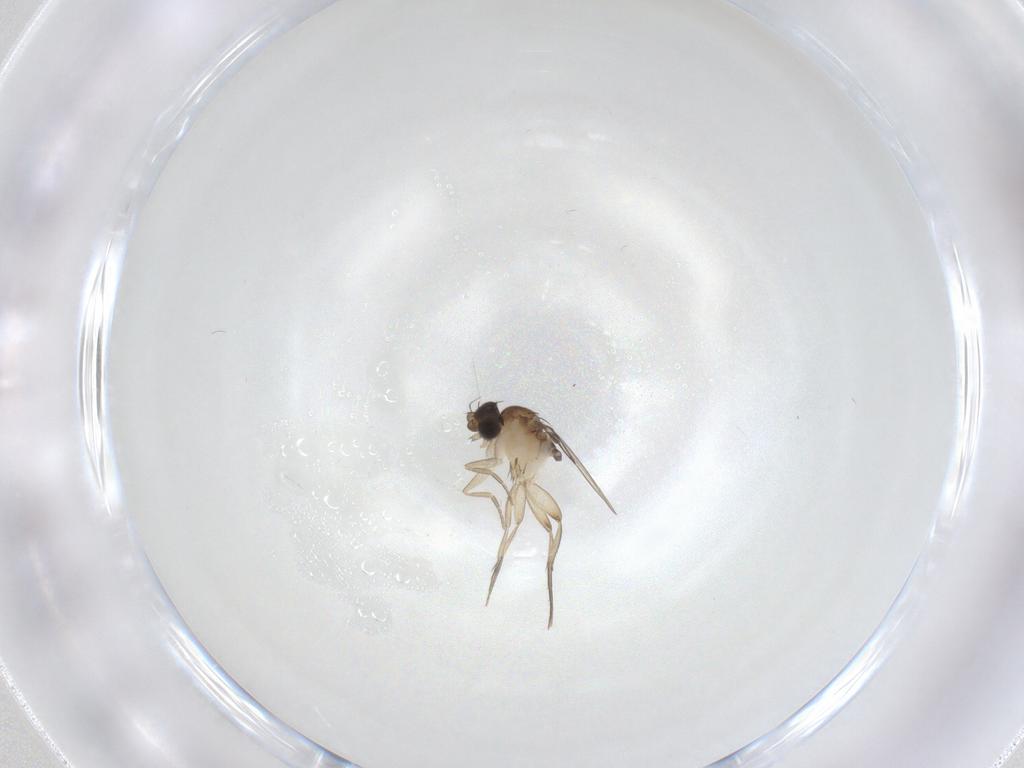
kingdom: Animalia
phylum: Arthropoda
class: Insecta
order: Diptera
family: Phoridae
